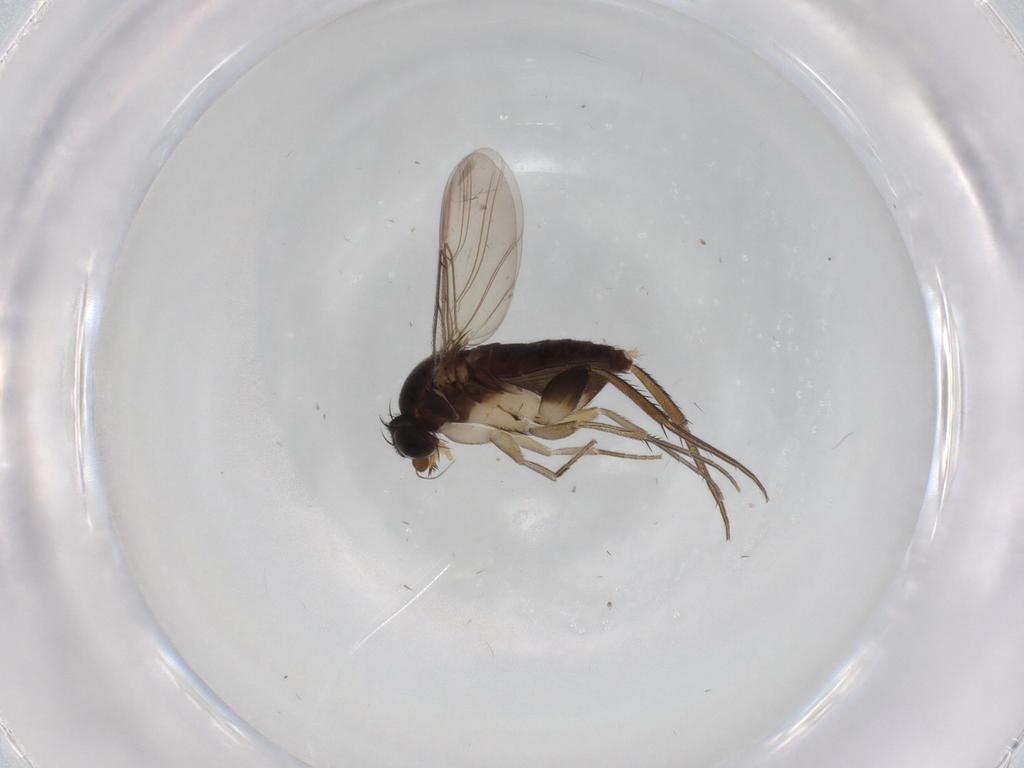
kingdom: Animalia
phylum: Arthropoda
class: Insecta
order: Diptera
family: Phoridae
